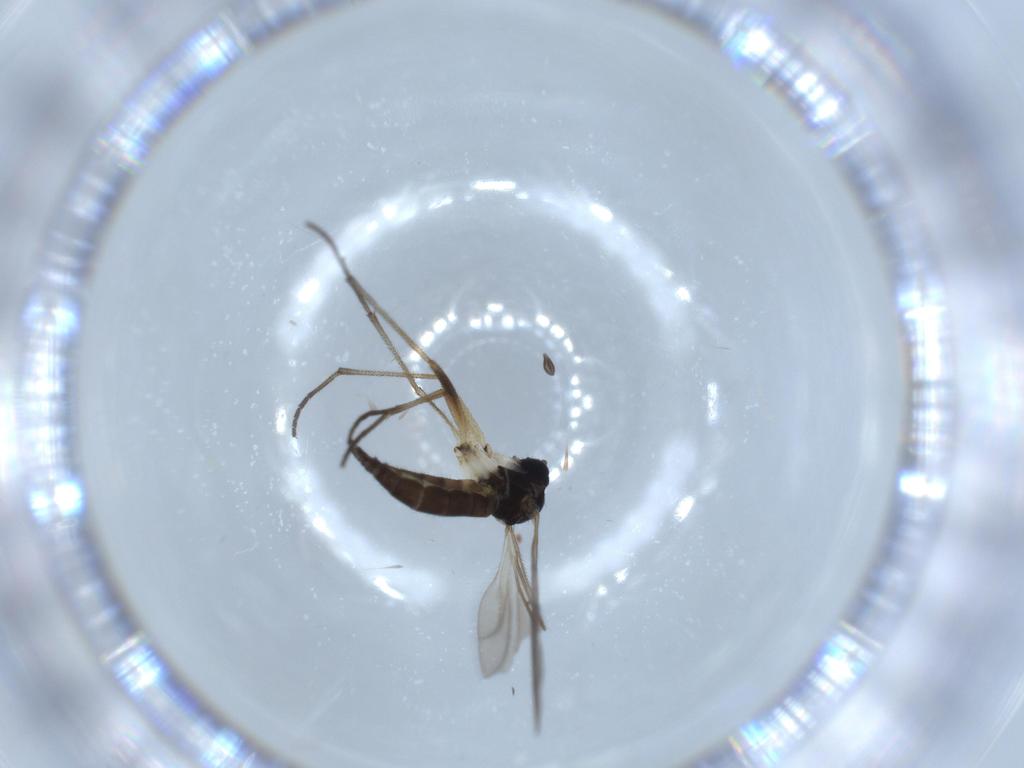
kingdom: Animalia
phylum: Arthropoda
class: Insecta
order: Diptera
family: Sciaridae
